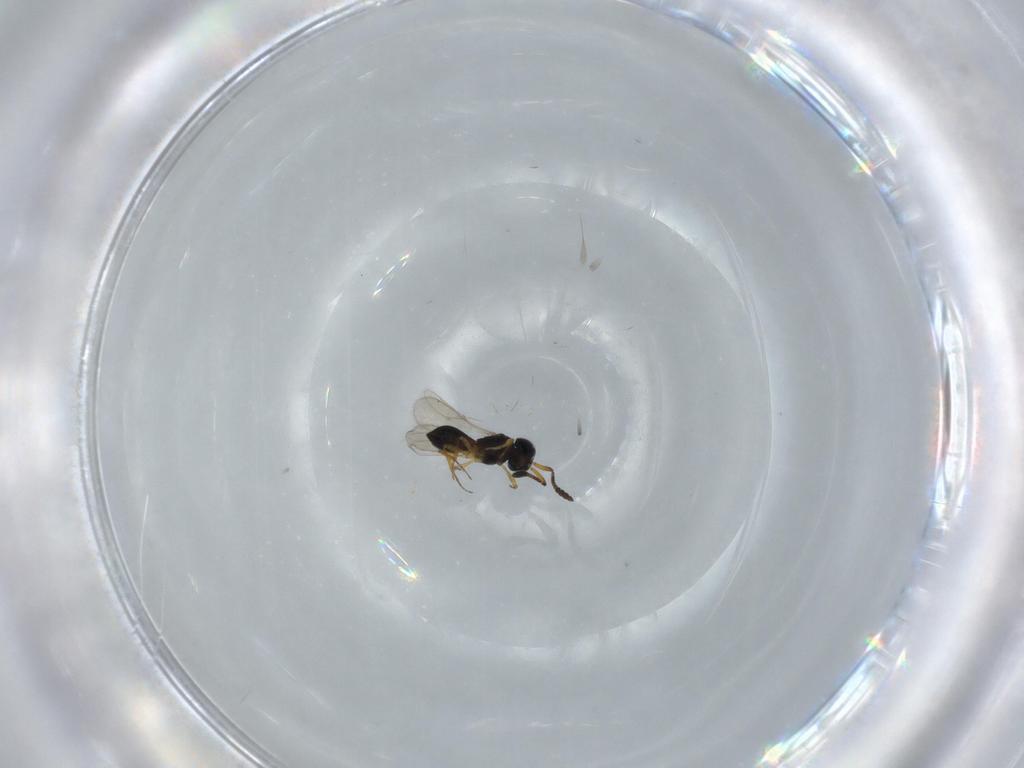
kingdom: Animalia
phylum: Arthropoda
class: Insecta
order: Hymenoptera
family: Scelionidae
